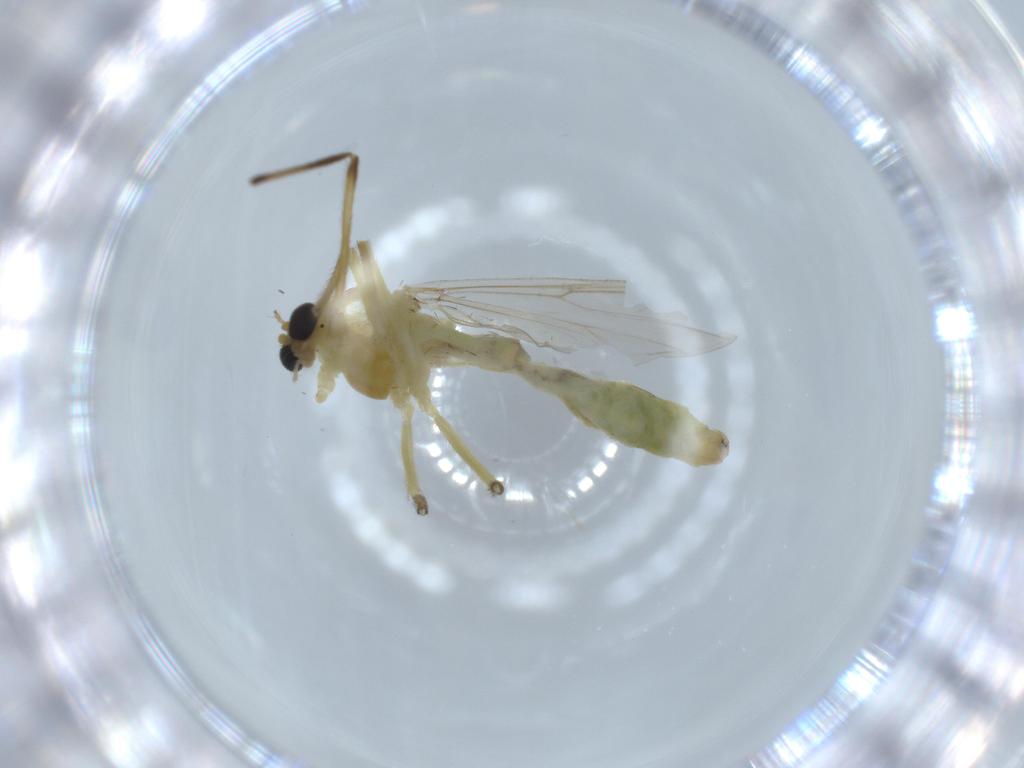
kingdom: Animalia
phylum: Arthropoda
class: Insecta
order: Diptera
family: Chironomidae
